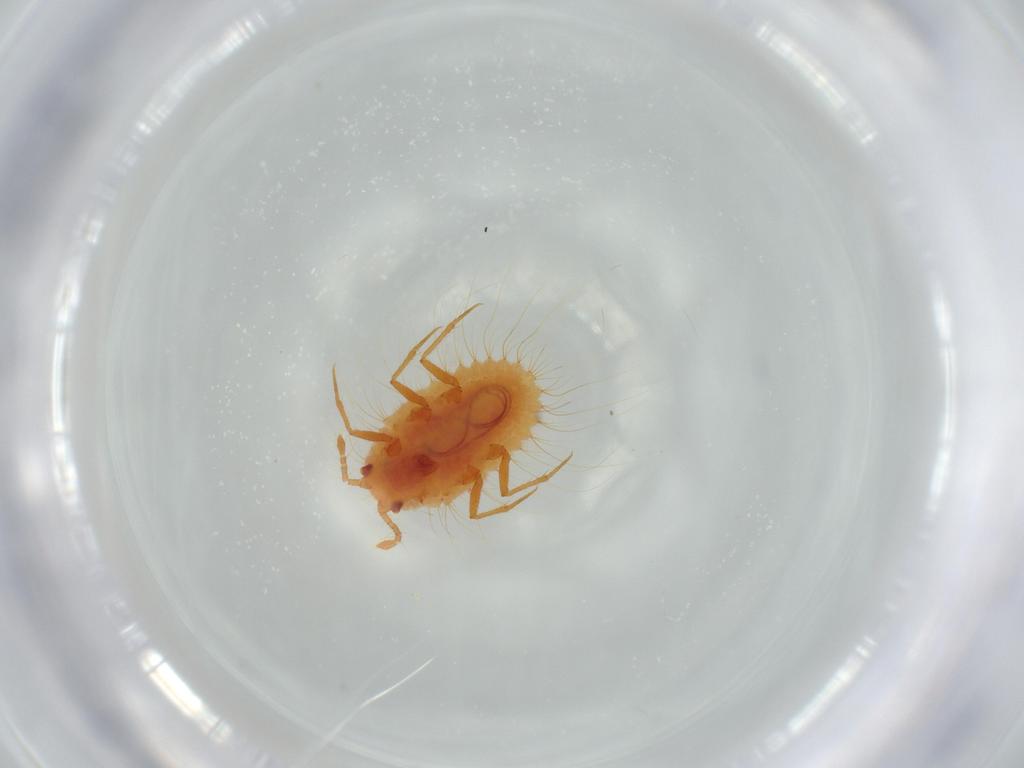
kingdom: Animalia
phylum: Arthropoda
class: Insecta
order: Hemiptera
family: Coccoidea_incertae_sedis
